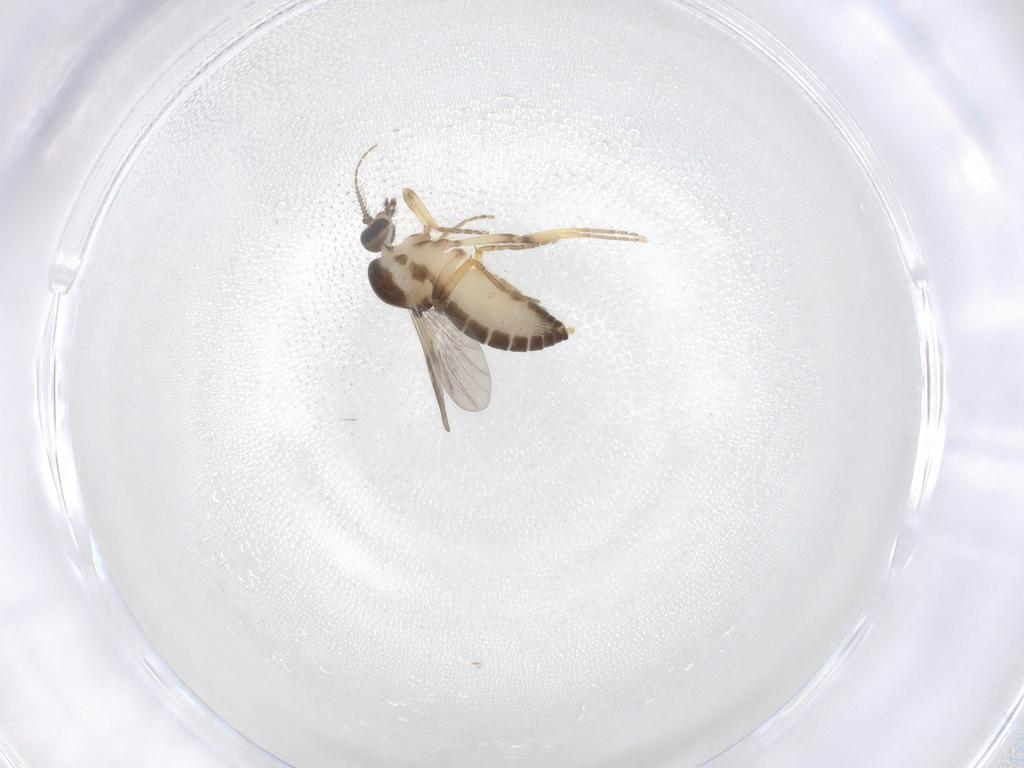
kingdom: Animalia
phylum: Arthropoda
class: Insecta
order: Diptera
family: Ceratopogonidae
